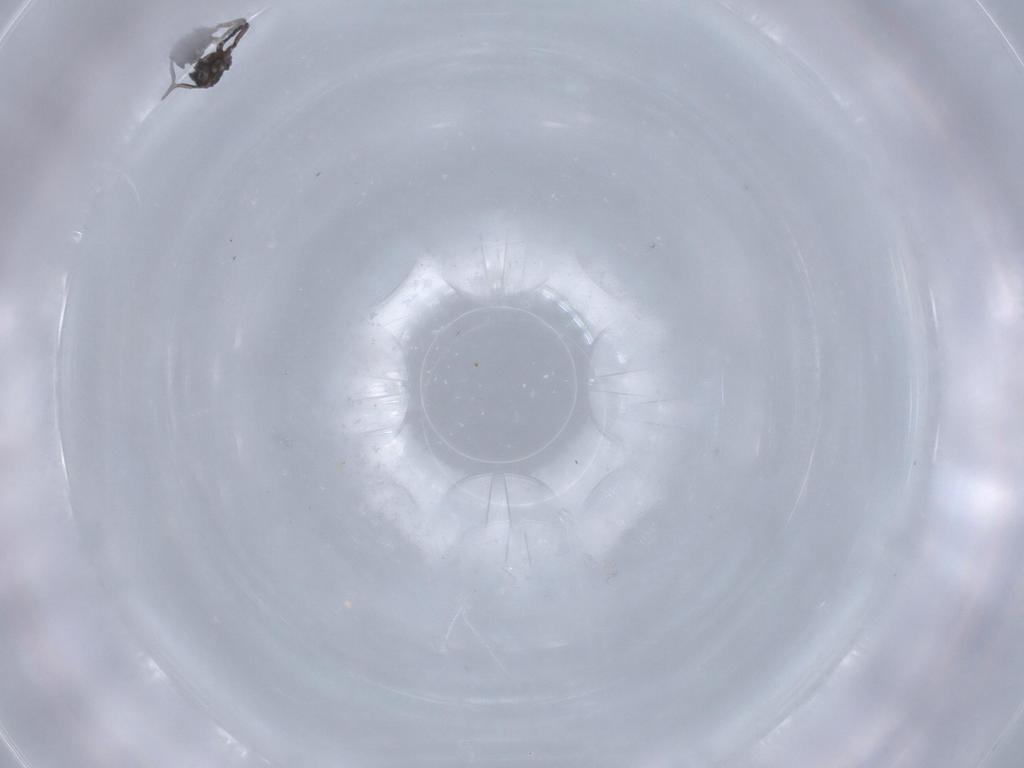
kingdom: Animalia
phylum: Arthropoda
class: Insecta
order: Diptera
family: Sciaridae
